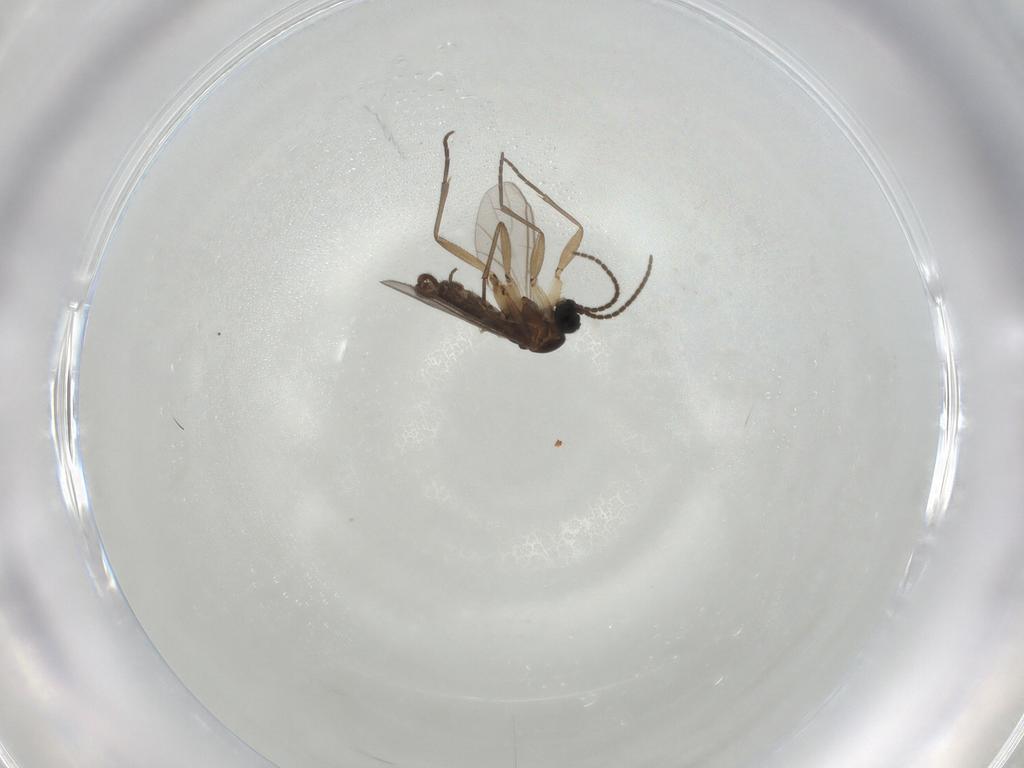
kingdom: Animalia
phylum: Arthropoda
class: Insecta
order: Diptera
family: Sciaridae
